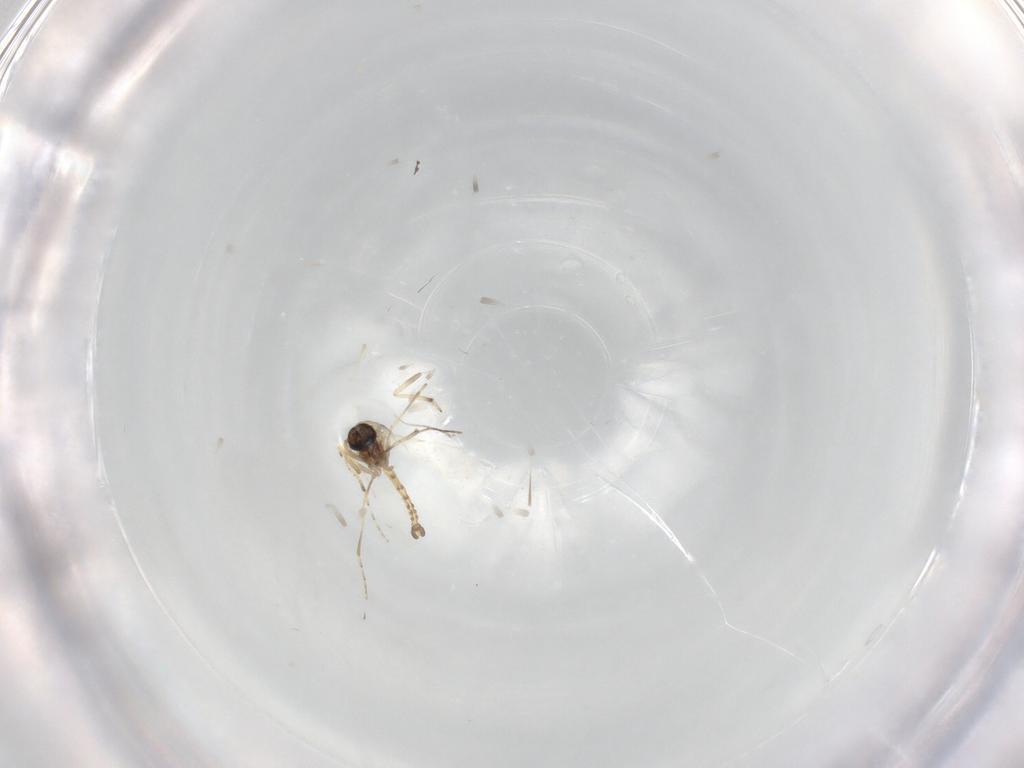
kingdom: Animalia
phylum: Arthropoda
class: Insecta
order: Diptera
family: Ceratopogonidae
